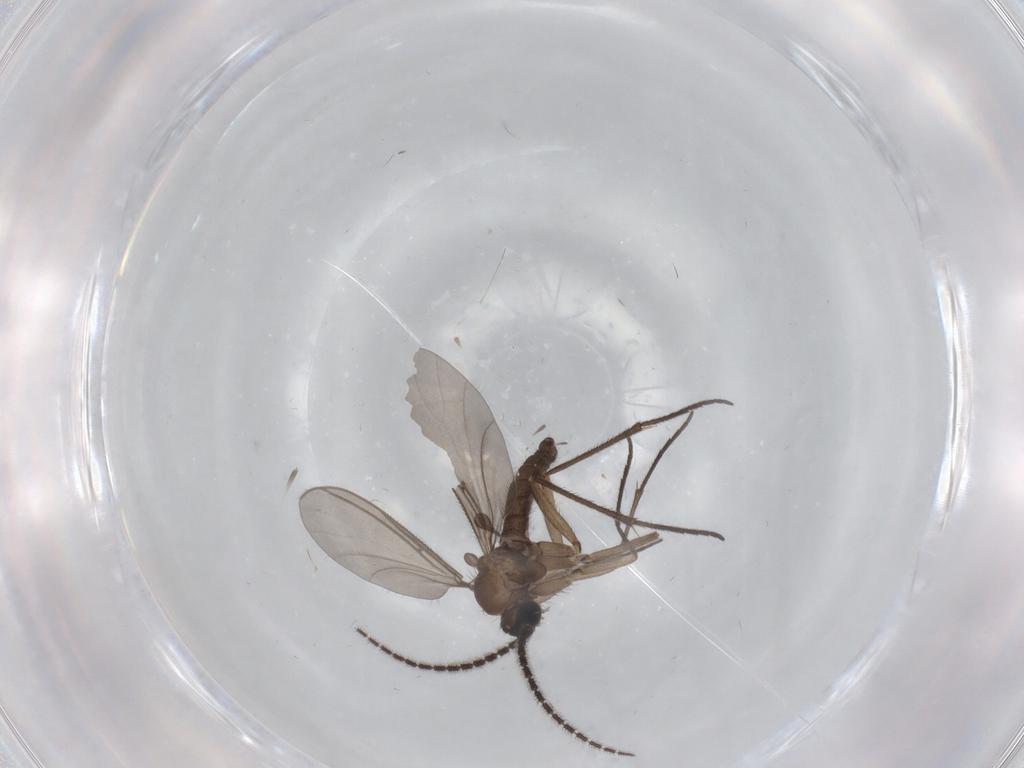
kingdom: Animalia
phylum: Arthropoda
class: Insecta
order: Diptera
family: Sciaridae
